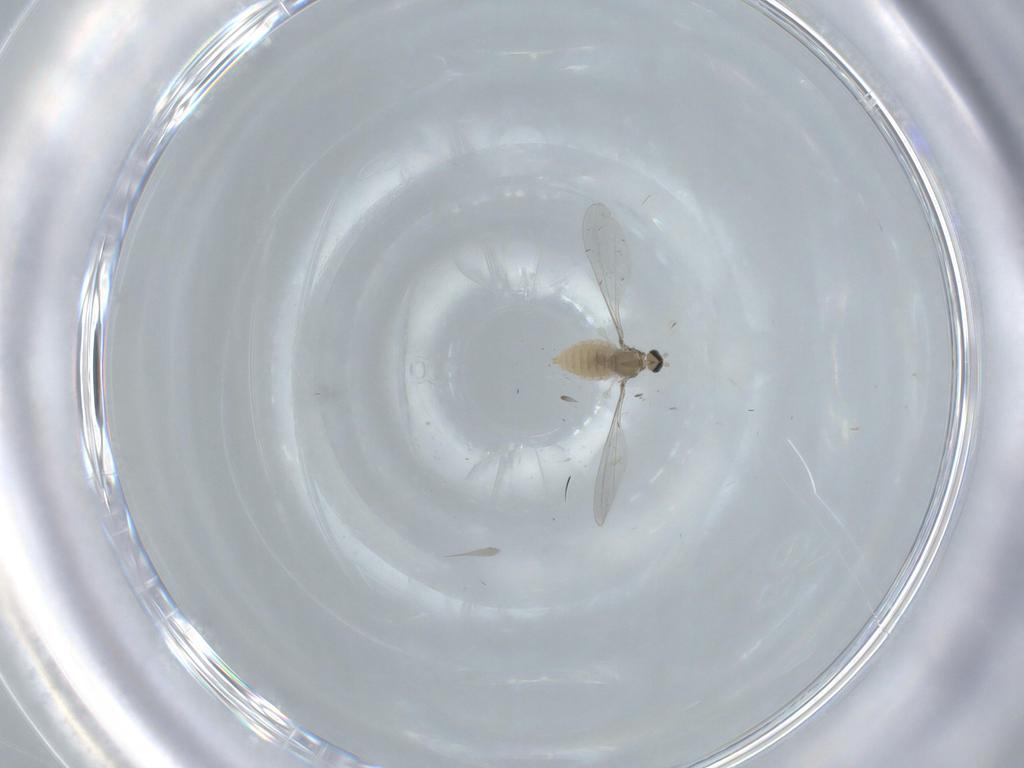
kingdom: Animalia
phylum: Arthropoda
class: Insecta
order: Diptera
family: Cecidomyiidae
